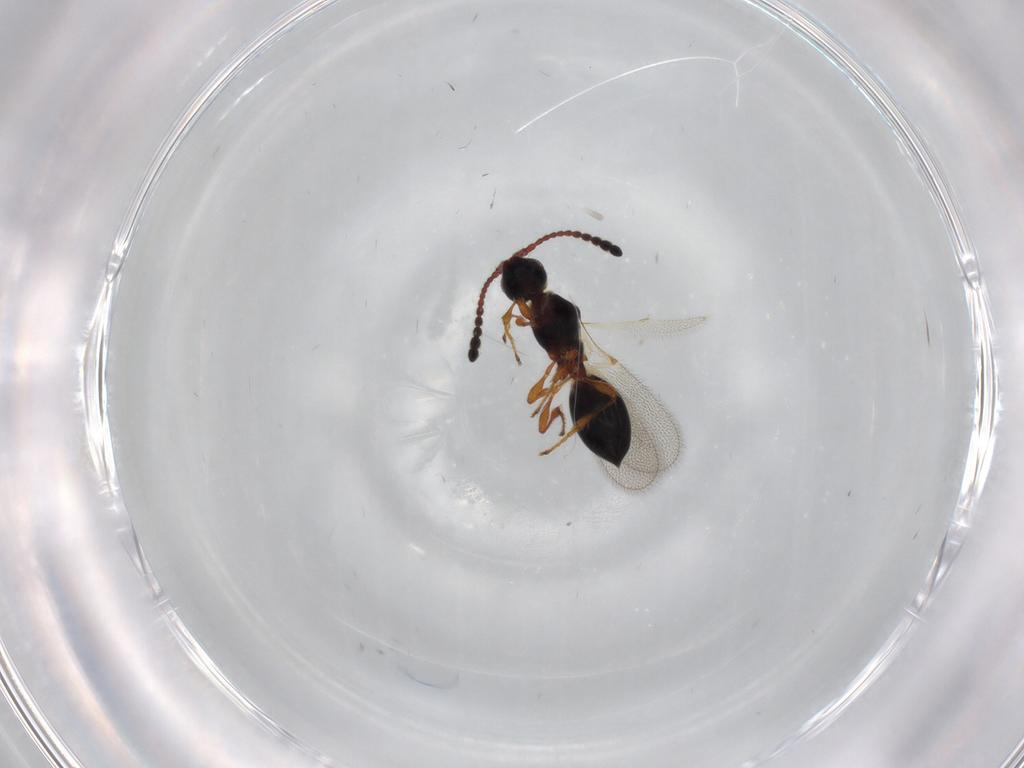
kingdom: Animalia
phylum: Arthropoda
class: Insecta
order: Hymenoptera
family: Diapriidae
